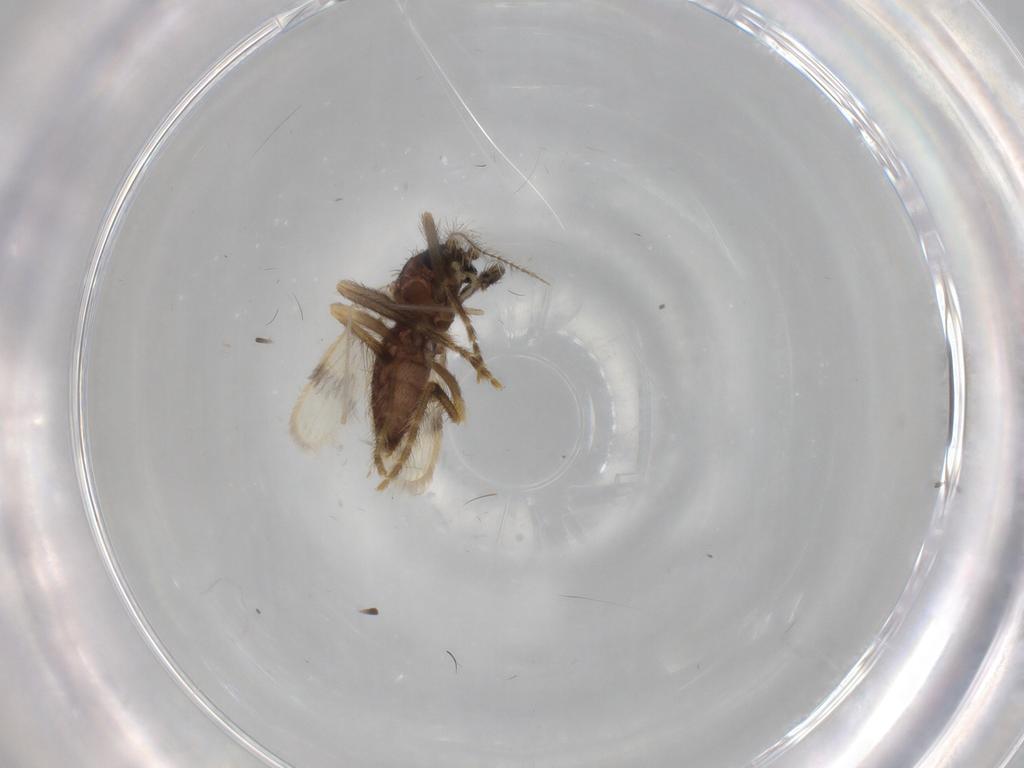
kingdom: Animalia
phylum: Arthropoda
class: Insecta
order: Diptera
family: Corethrellidae
